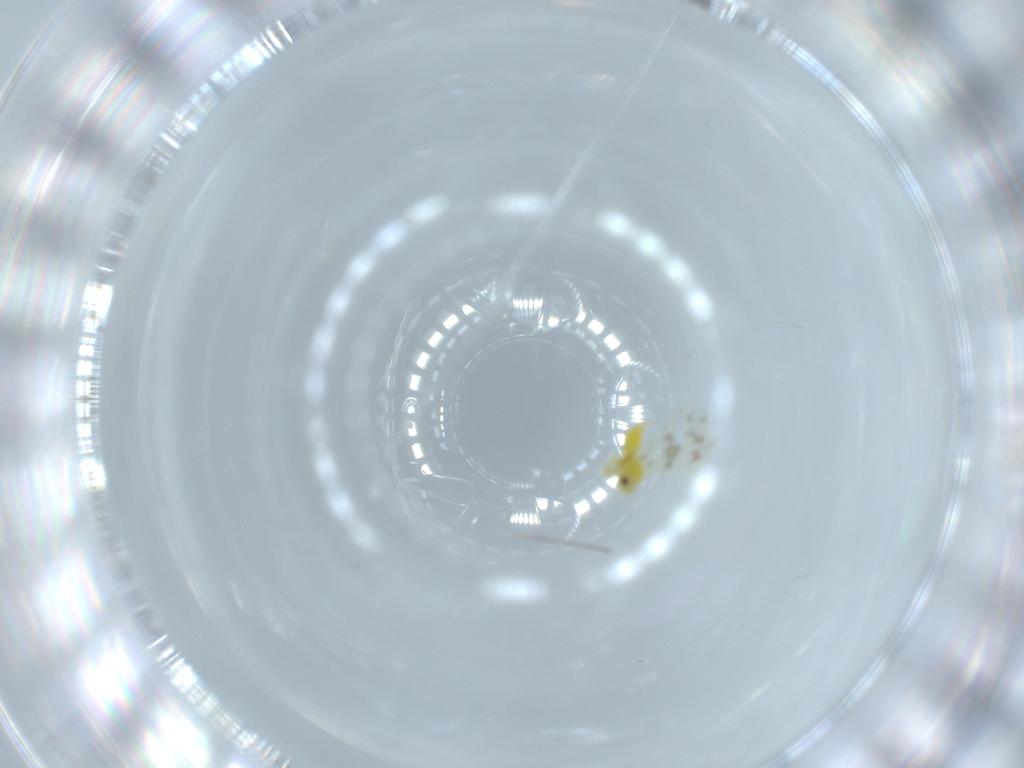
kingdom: Animalia
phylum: Arthropoda
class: Insecta
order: Hemiptera
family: Aleyrodidae
